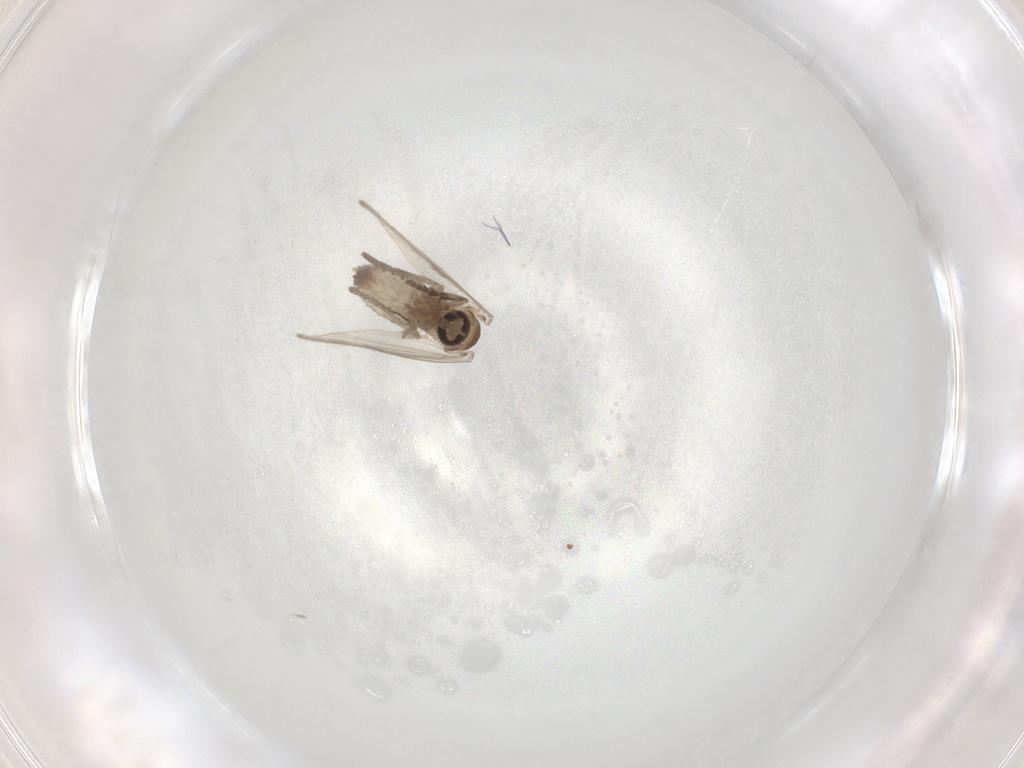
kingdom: Animalia
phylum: Arthropoda
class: Insecta
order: Diptera
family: Psychodidae
